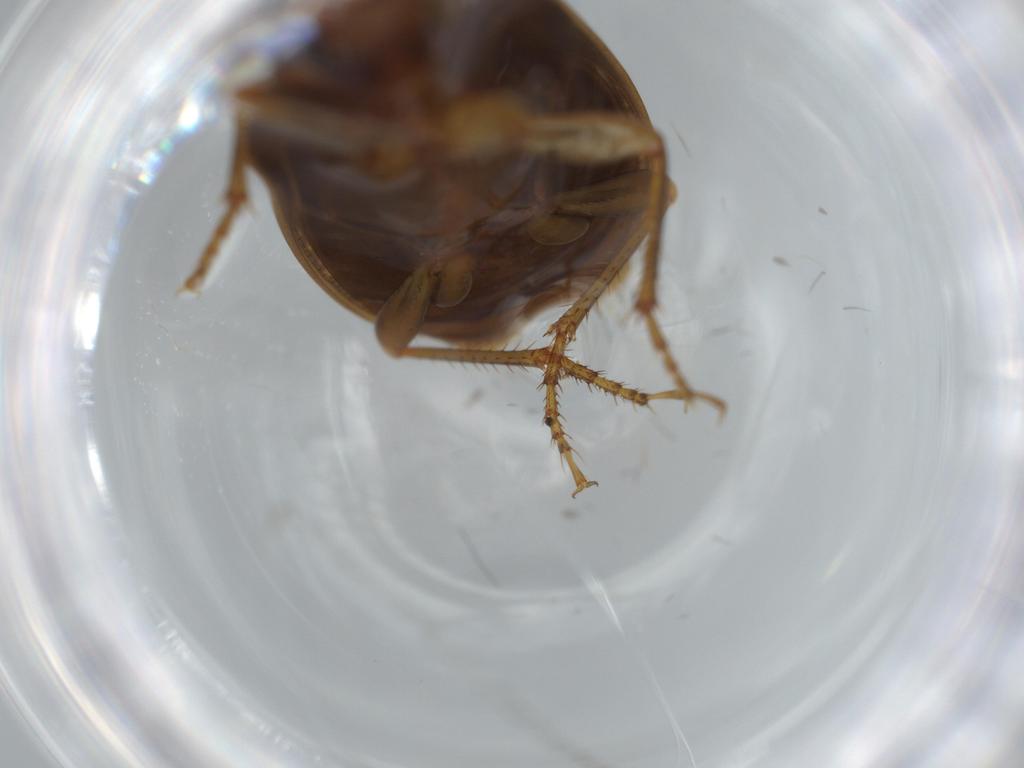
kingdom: Animalia
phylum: Arthropoda
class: Insecta
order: Coleoptera
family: Carabidae
